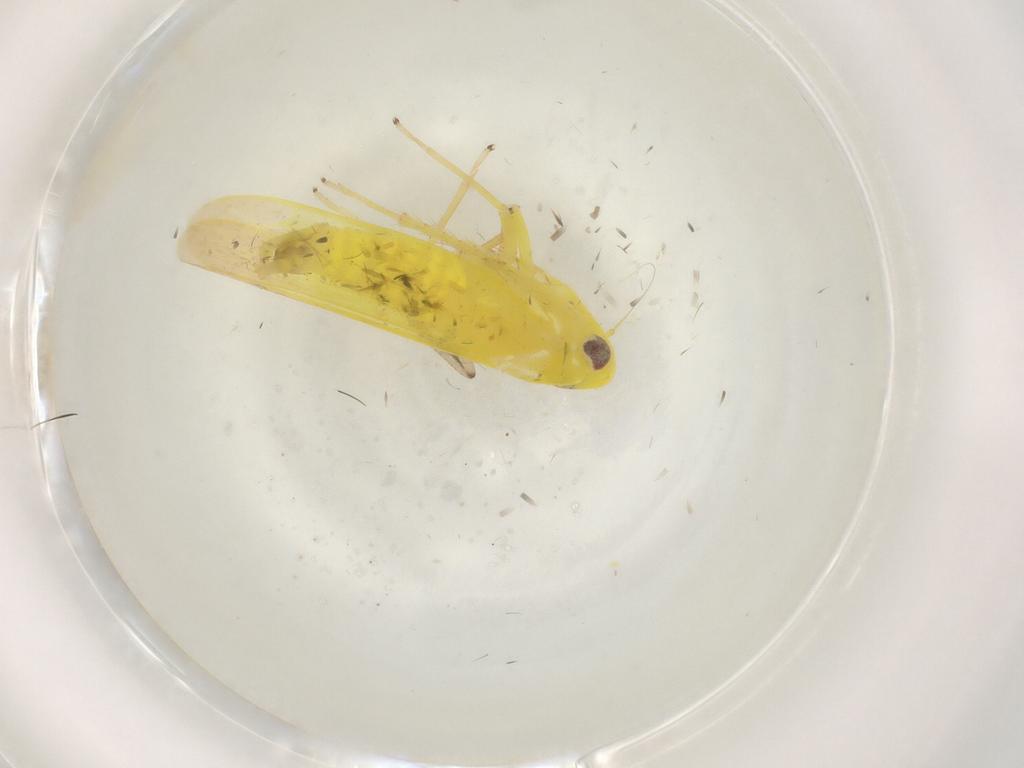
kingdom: Animalia
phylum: Arthropoda
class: Insecta
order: Hemiptera
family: Cicadellidae
